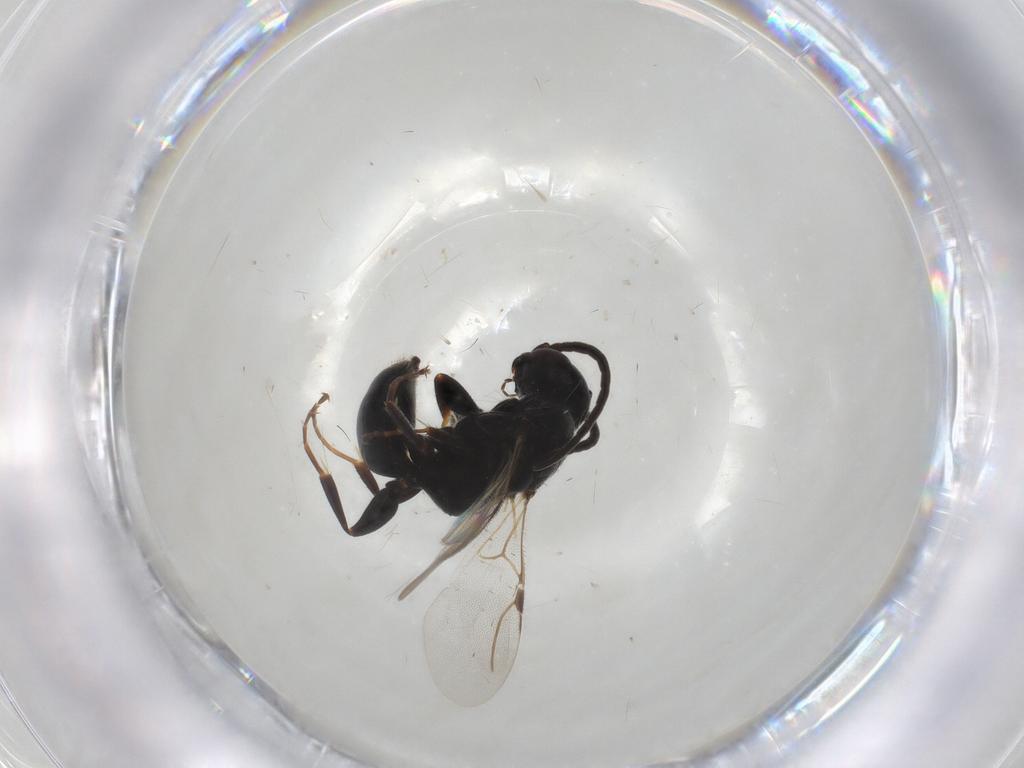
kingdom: Animalia
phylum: Arthropoda
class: Insecta
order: Hymenoptera
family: Bethylidae
